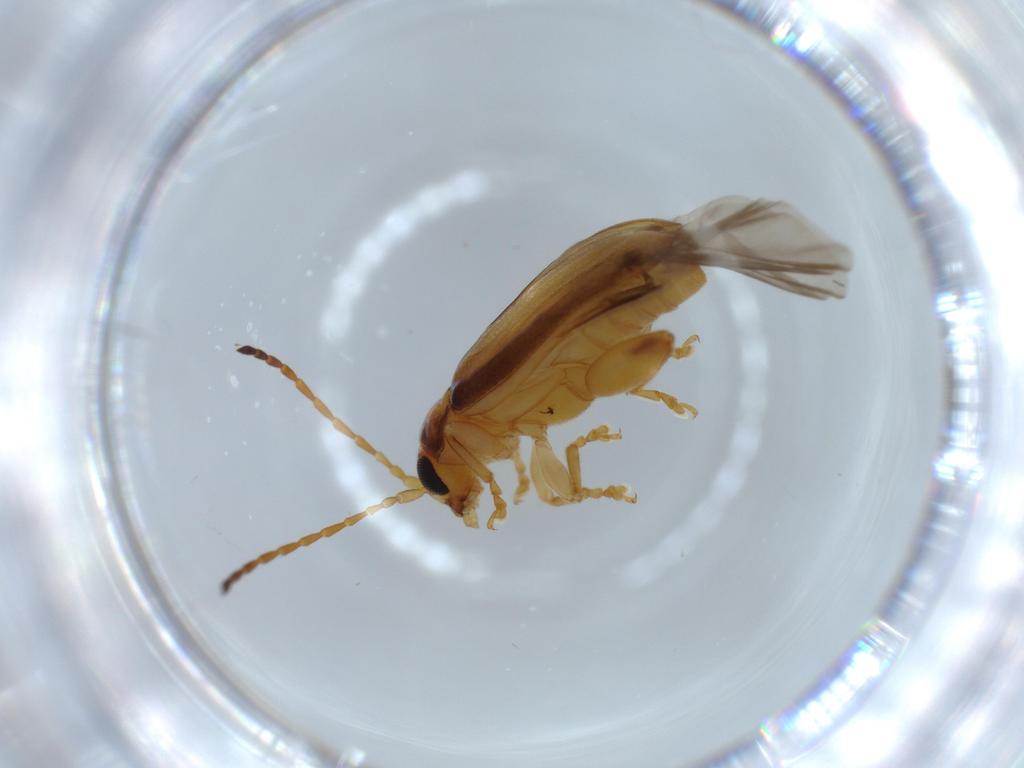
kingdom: Animalia
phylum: Arthropoda
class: Insecta
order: Coleoptera
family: Chrysomelidae
